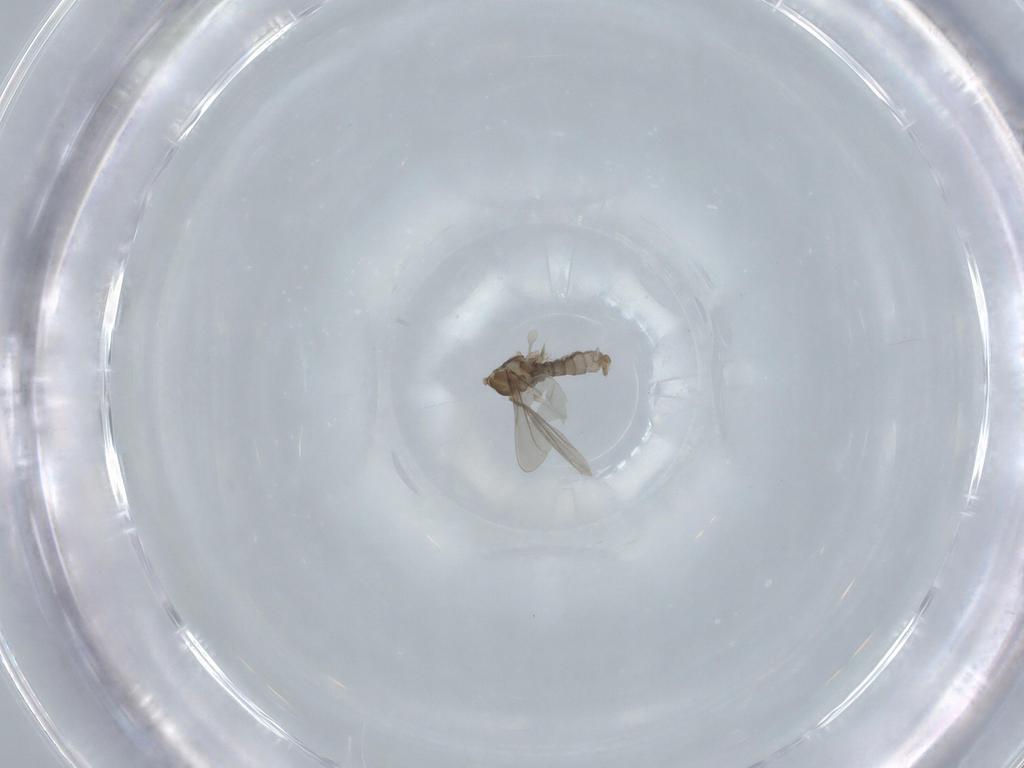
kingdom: Animalia
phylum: Arthropoda
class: Insecta
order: Diptera
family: Cecidomyiidae
